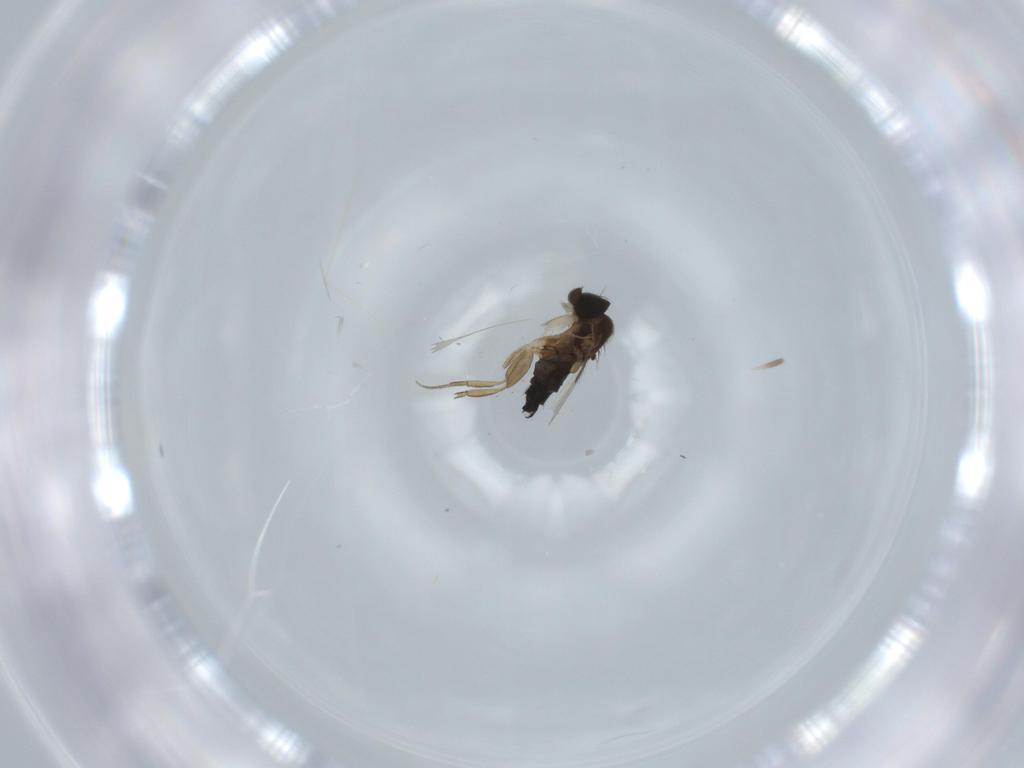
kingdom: Animalia
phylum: Arthropoda
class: Insecta
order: Diptera
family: Phoridae
